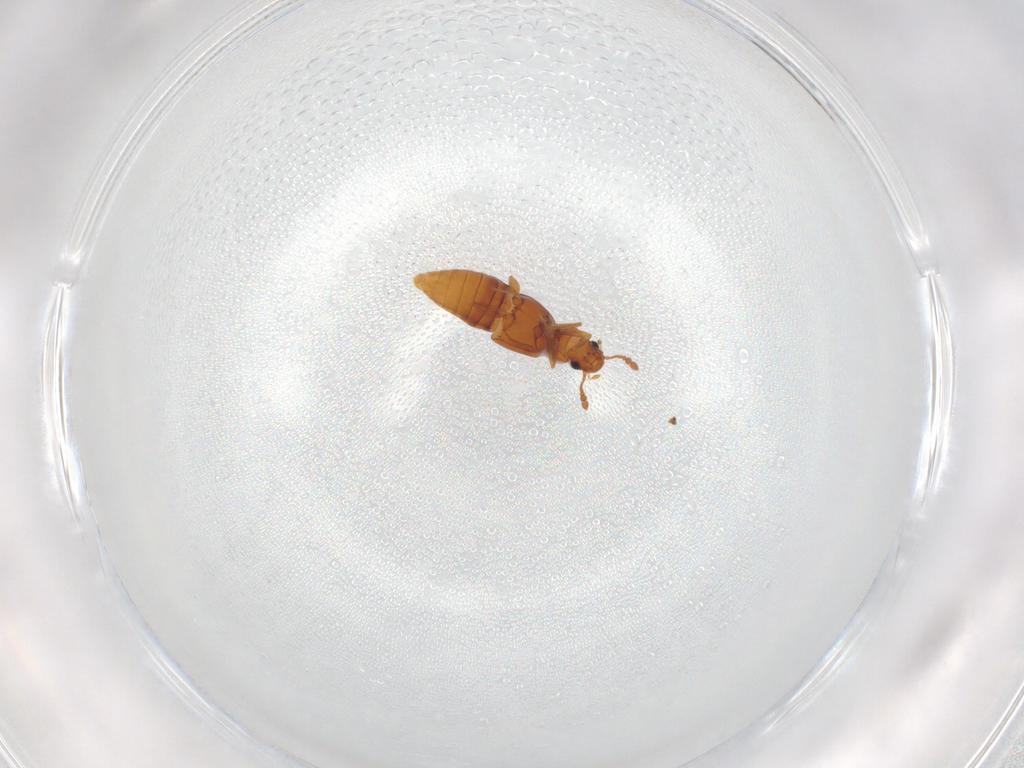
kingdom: Animalia
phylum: Arthropoda
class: Insecta
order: Coleoptera
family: Staphylinidae
